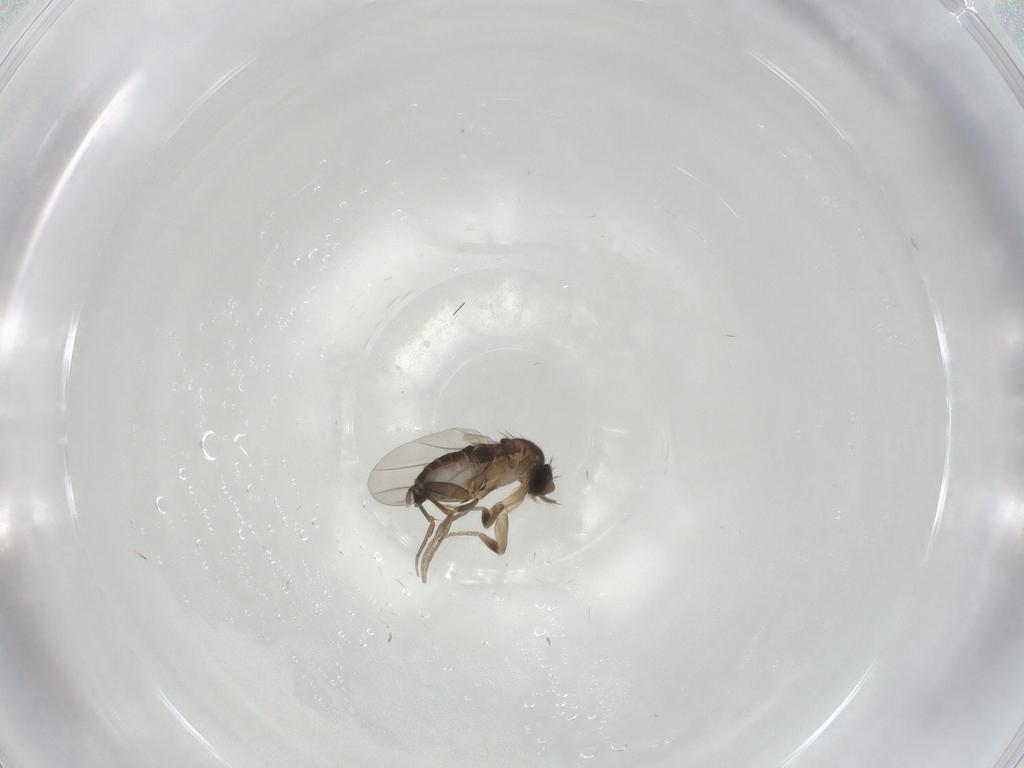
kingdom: Animalia
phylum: Arthropoda
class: Insecta
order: Diptera
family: Phoridae
